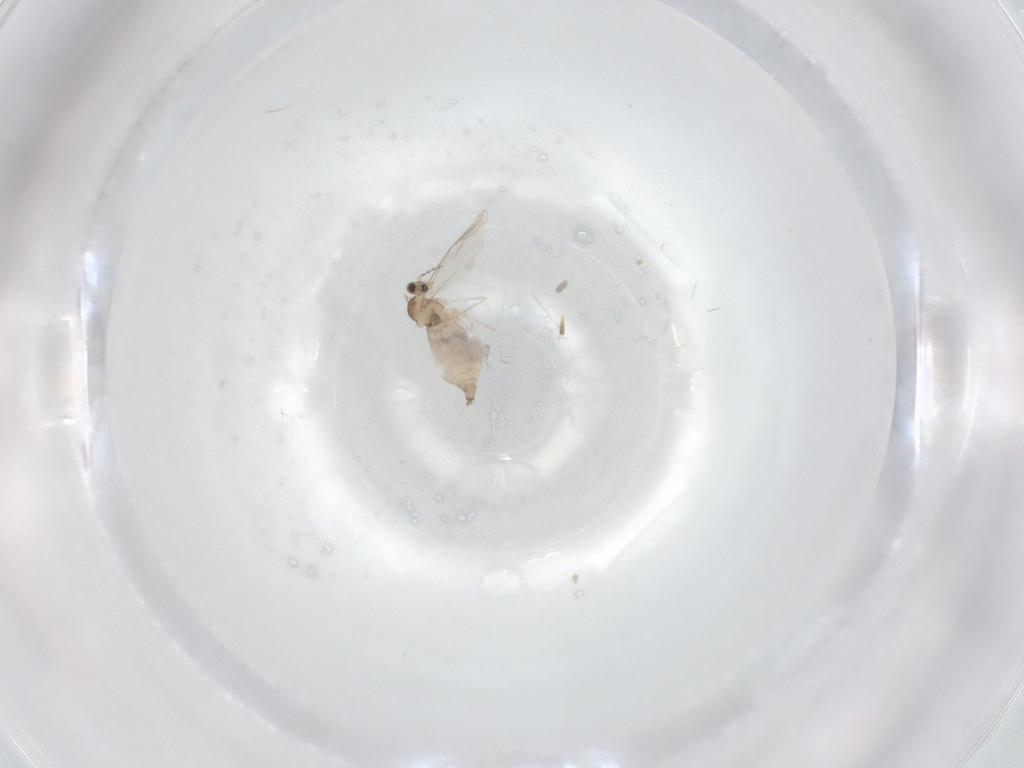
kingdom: Animalia
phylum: Arthropoda
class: Insecta
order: Diptera
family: Cecidomyiidae
